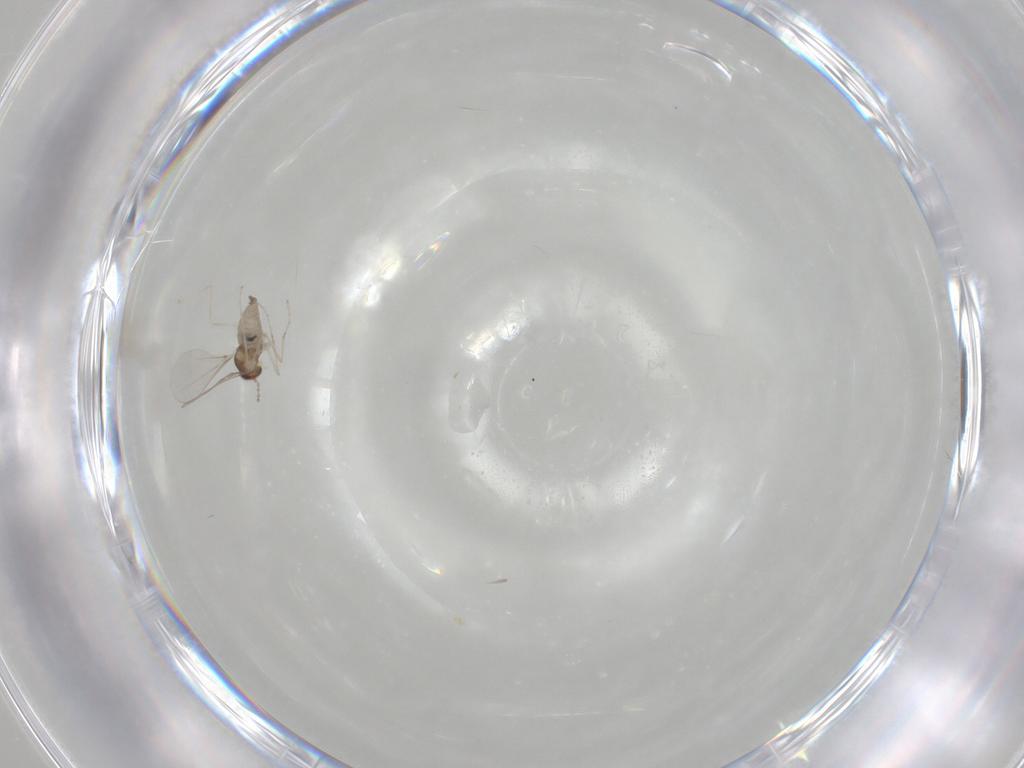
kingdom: Animalia
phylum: Arthropoda
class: Insecta
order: Diptera
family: Cecidomyiidae
